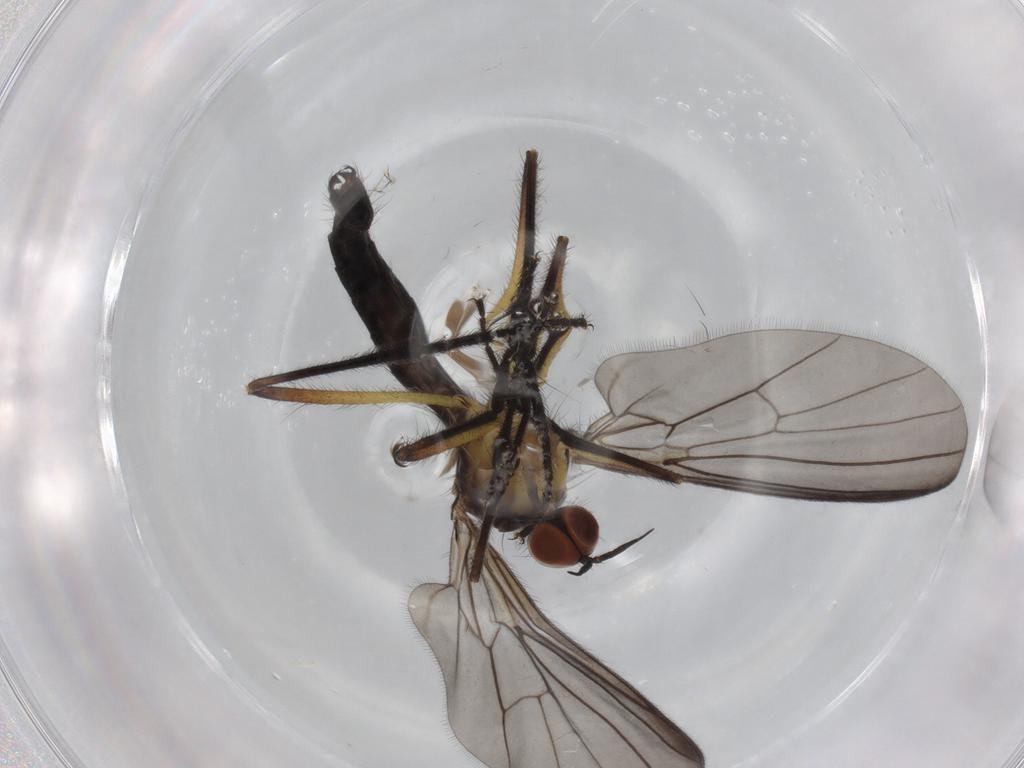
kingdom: Animalia
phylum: Arthropoda
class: Insecta
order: Diptera
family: Empididae
